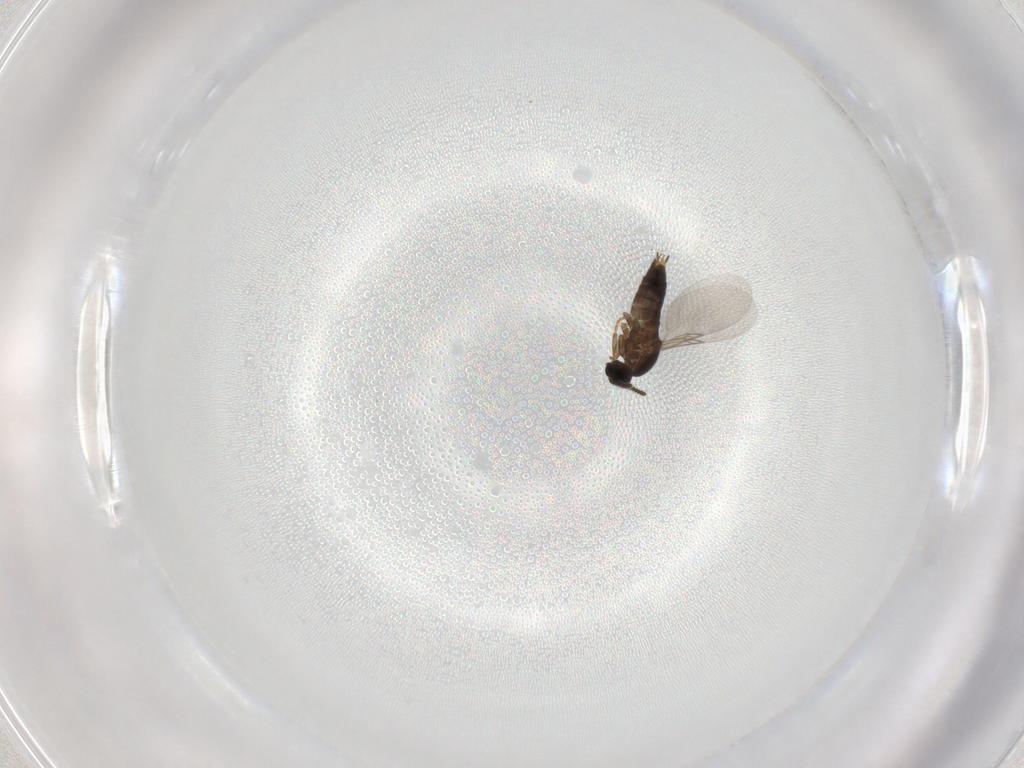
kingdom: Animalia
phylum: Arthropoda
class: Insecta
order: Diptera
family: Scatopsidae
